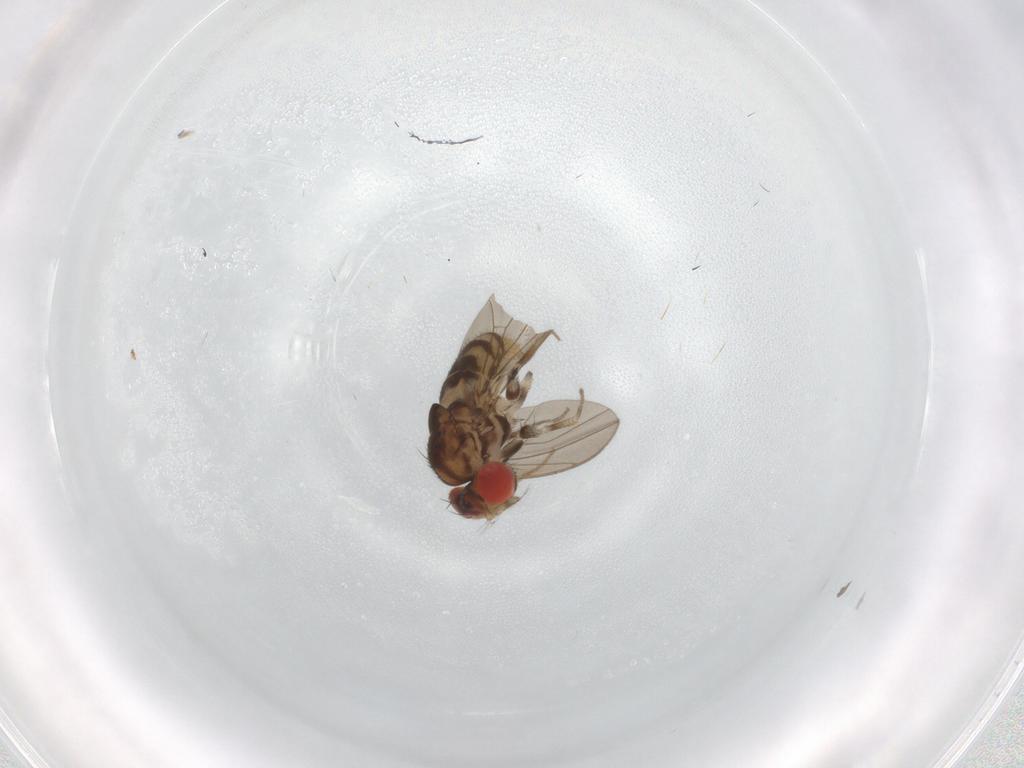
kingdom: Animalia
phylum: Arthropoda
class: Insecta
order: Diptera
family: Drosophilidae
